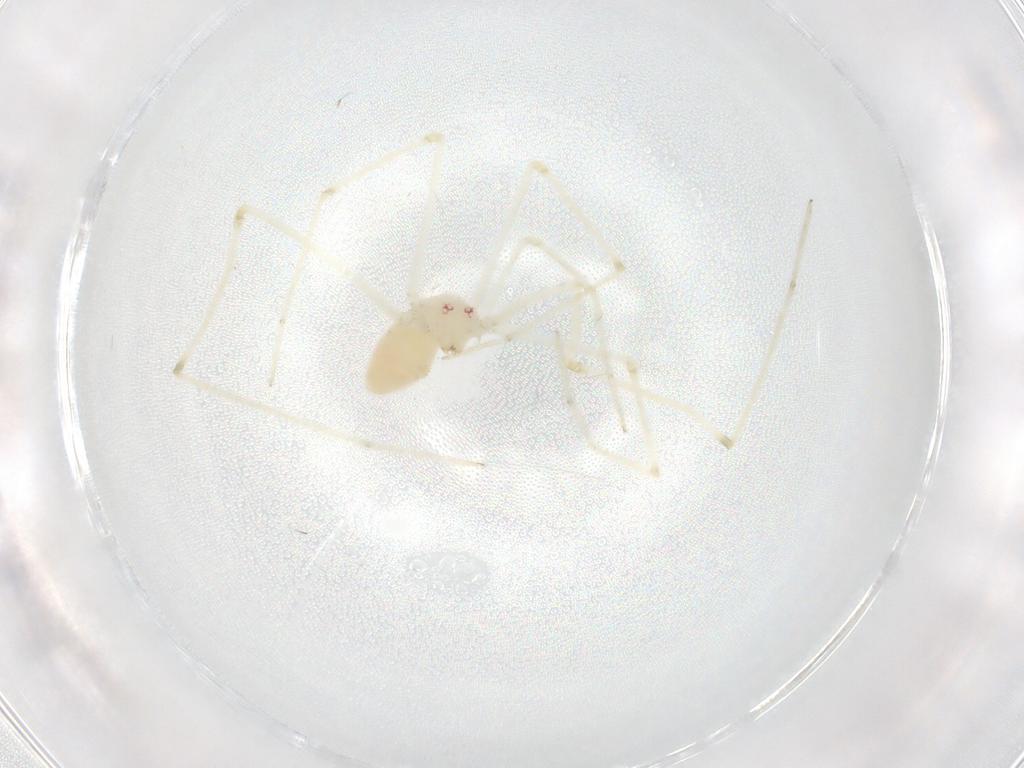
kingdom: Animalia
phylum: Arthropoda
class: Arachnida
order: Araneae
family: Pholcidae
